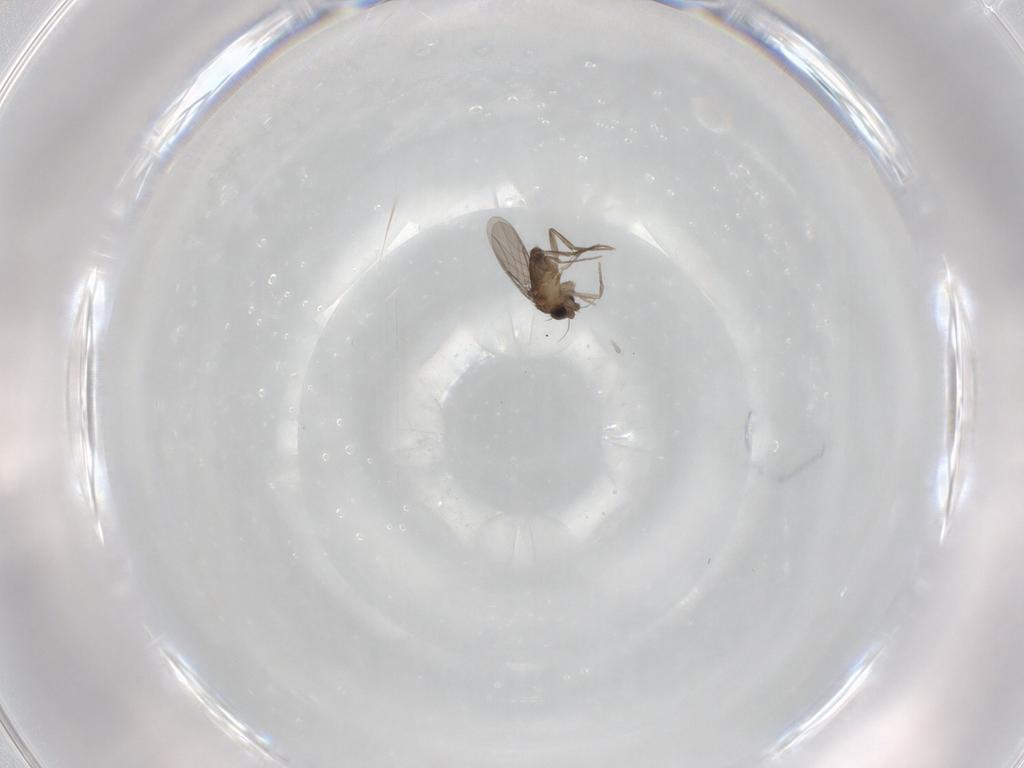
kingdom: Animalia
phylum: Arthropoda
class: Insecta
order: Diptera
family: Phoridae
